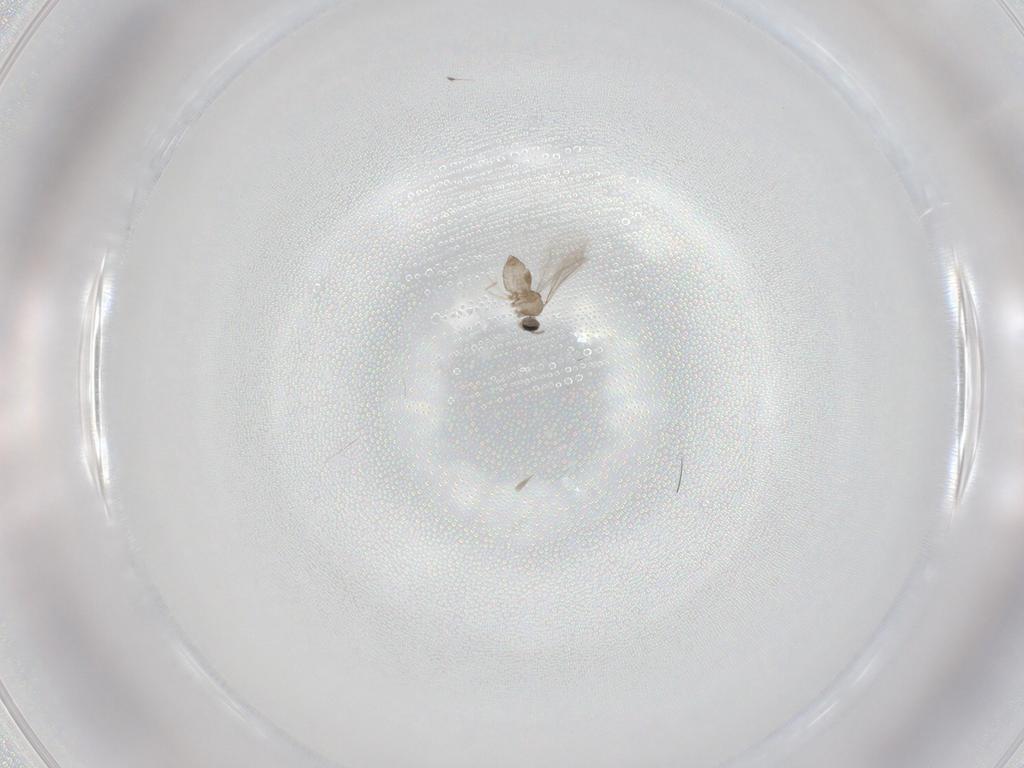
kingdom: Animalia
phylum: Arthropoda
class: Insecta
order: Diptera
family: Cecidomyiidae
